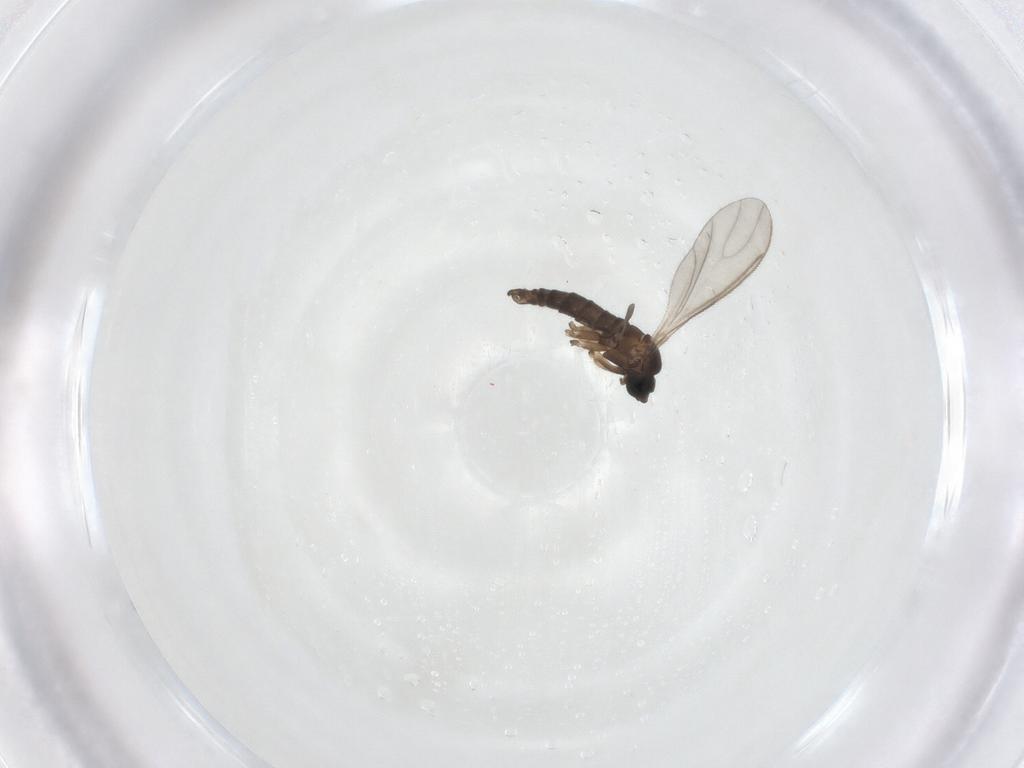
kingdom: Animalia
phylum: Arthropoda
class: Insecta
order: Diptera
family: Sciaridae
